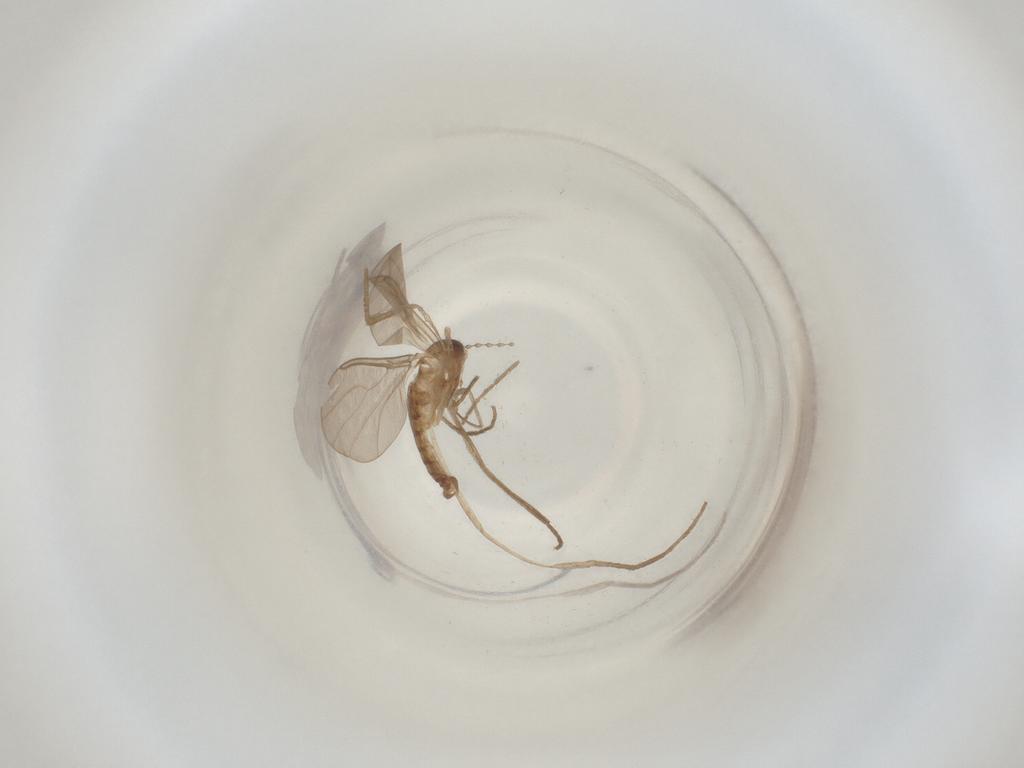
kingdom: Animalia
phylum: Arthropoda
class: Insecta
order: Diptera
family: Cecidomyiidae
